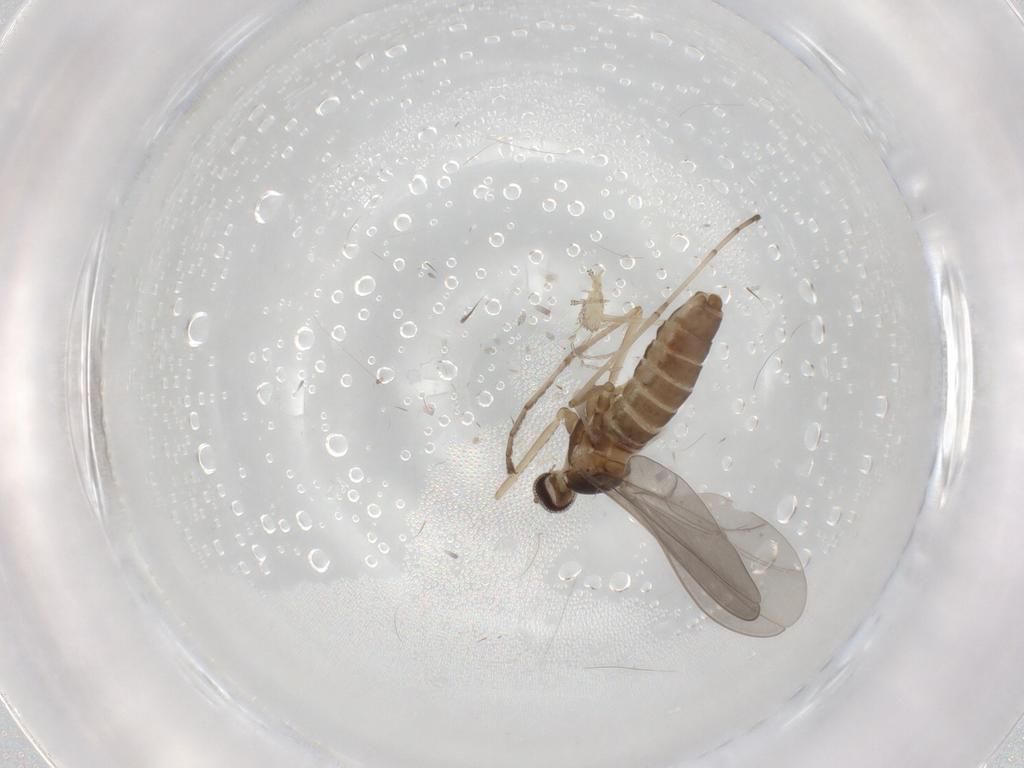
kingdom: Animalia
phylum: Arthropoda
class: Insecta
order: Diptera
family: Cecidomyiidae
